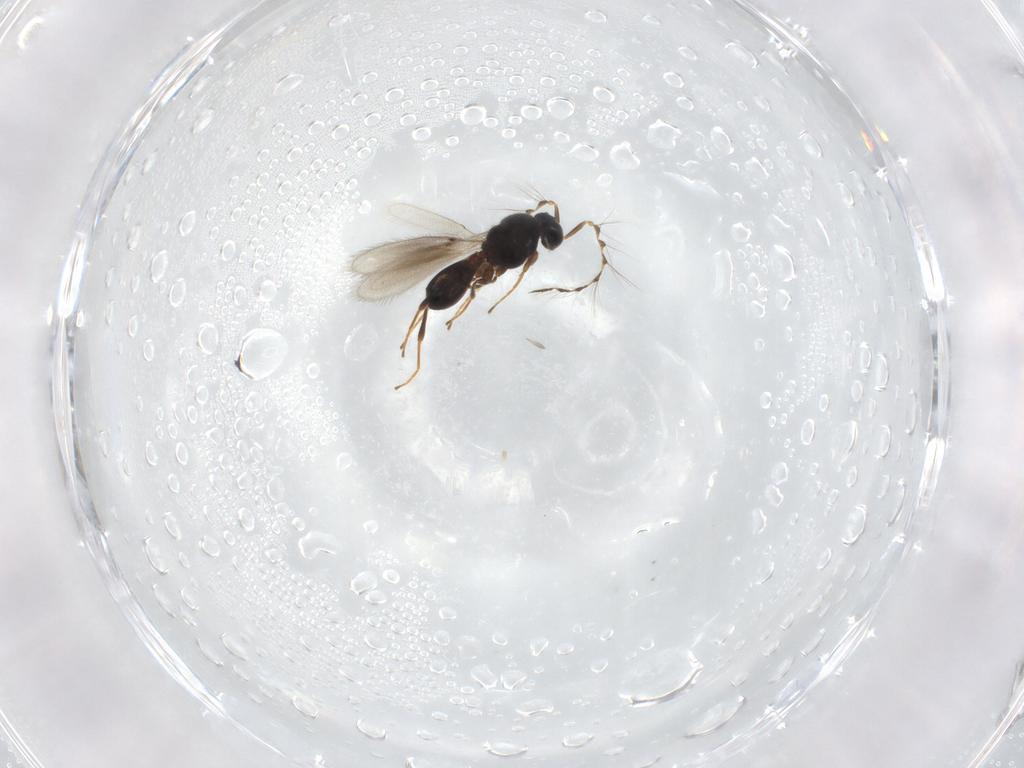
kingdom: Animalia
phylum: Arthropoda
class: Insecta
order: Hymenoptera
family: Platygastridae
